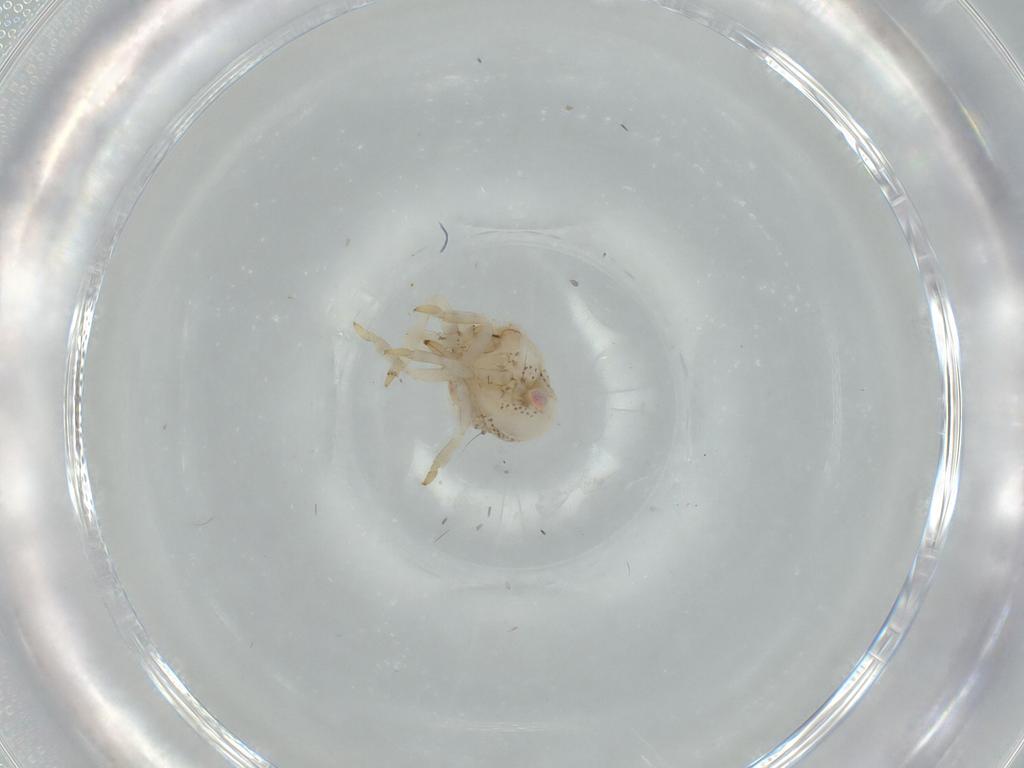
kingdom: Animalia
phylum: Arthropoda
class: Insecta
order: Hemiptera
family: Acanaloniidae
